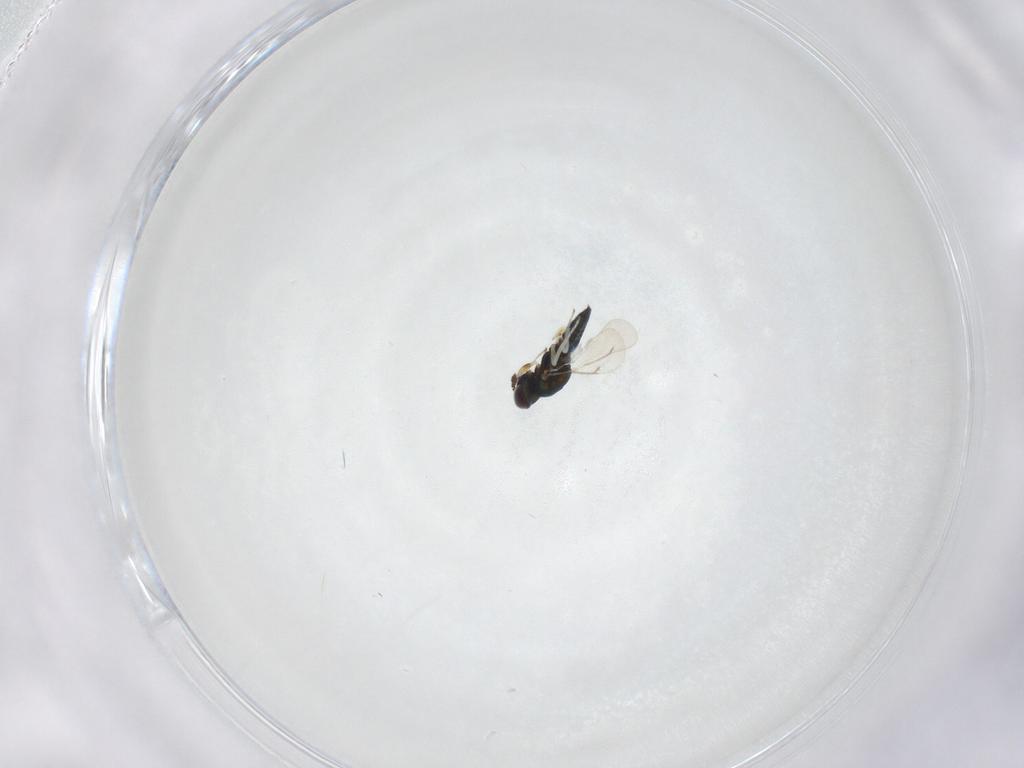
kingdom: Animalia
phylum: Arthropoda
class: Insecta
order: Hymenoptera
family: Eulophidae
